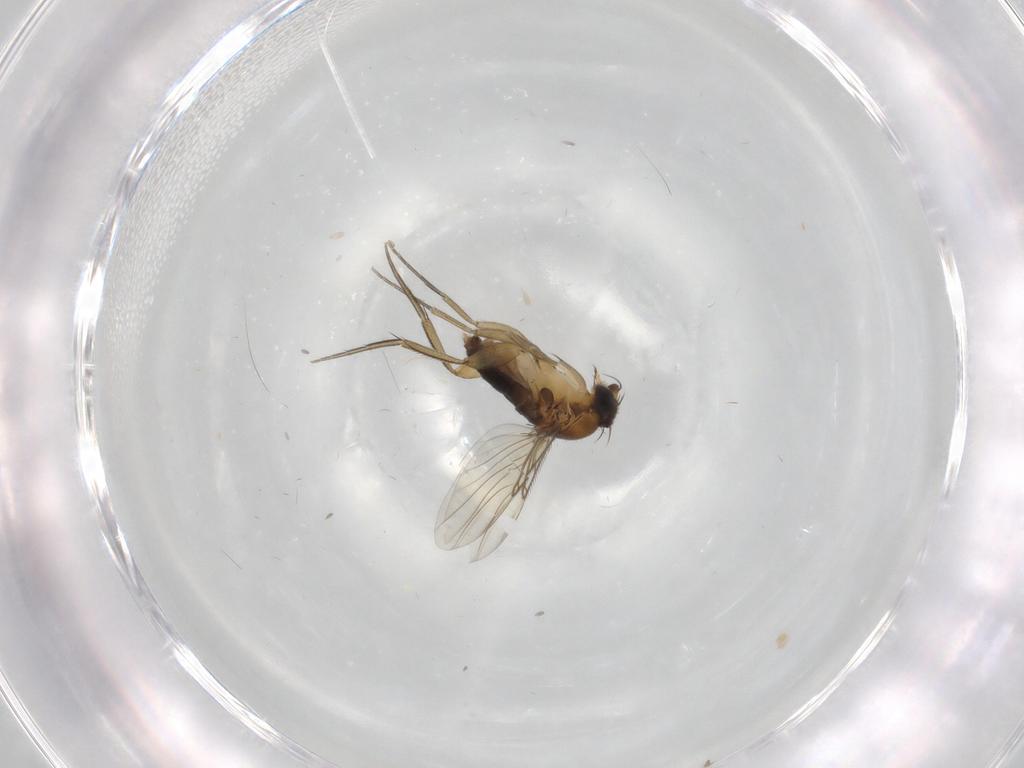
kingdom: Animalia
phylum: Arthropoda
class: Insecta
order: Diptera
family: Phoridae
